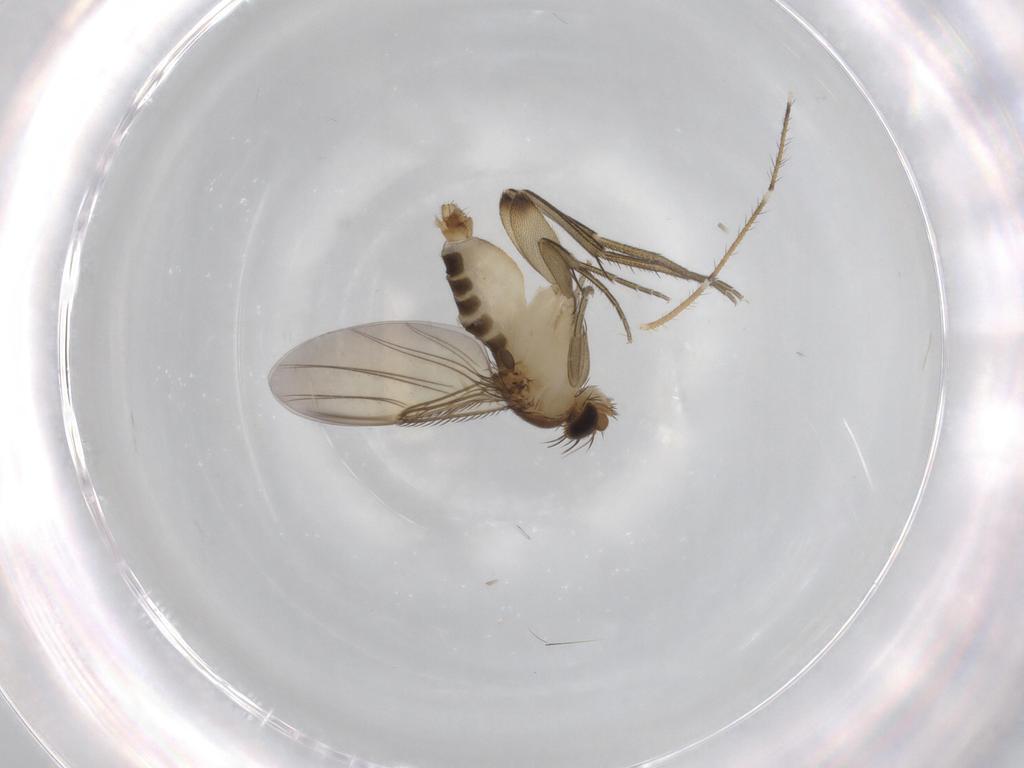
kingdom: Animalia
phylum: Arthropoda
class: Insecta
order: Diptera
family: Phoridae
